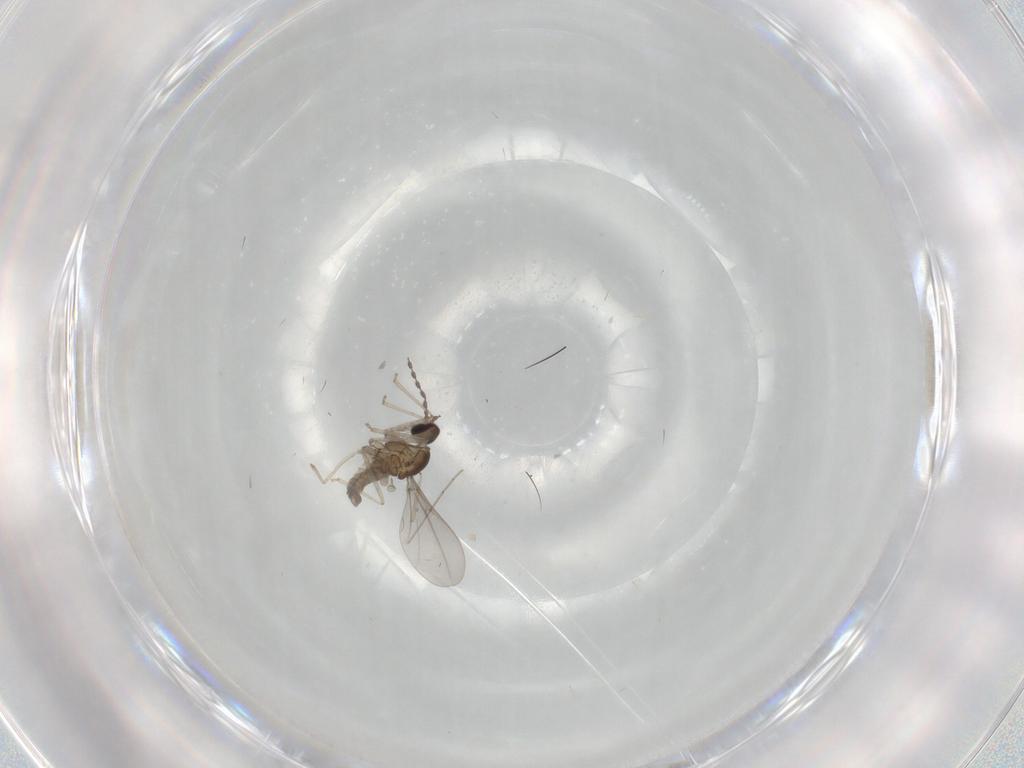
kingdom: Animalia
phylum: Arthropoda
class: Insecta
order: Diptera
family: Cecidomyiidae
